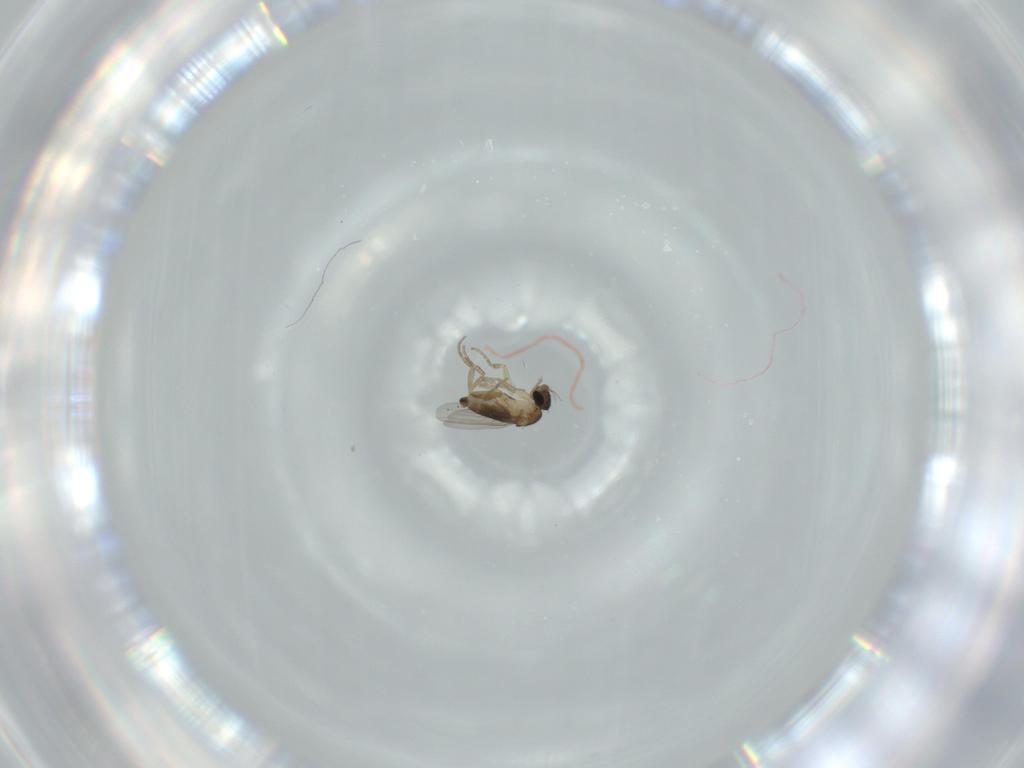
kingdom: Animalia
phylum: Arthropoda
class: Insecta
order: Diptera
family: Phoridae
